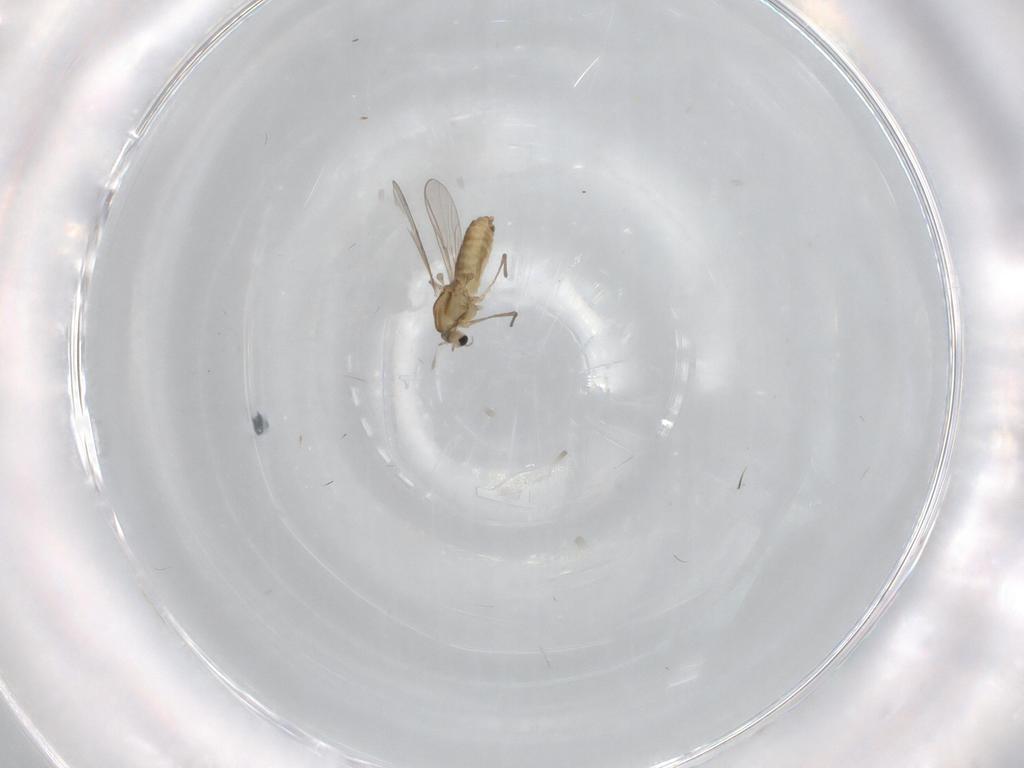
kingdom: Animalia
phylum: Arthropoda
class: Insecta
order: Diptera
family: Chironomidae
